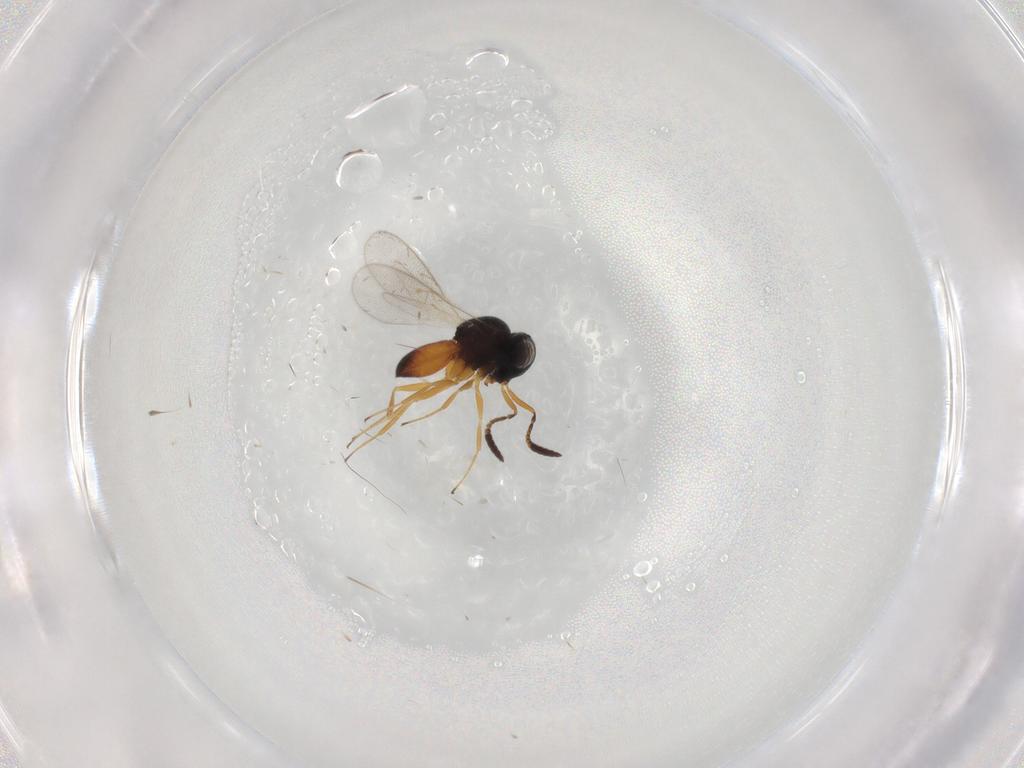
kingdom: Animalia
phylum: Arthropoda
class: Insecta
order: Hymenoptera
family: Scelionidae
